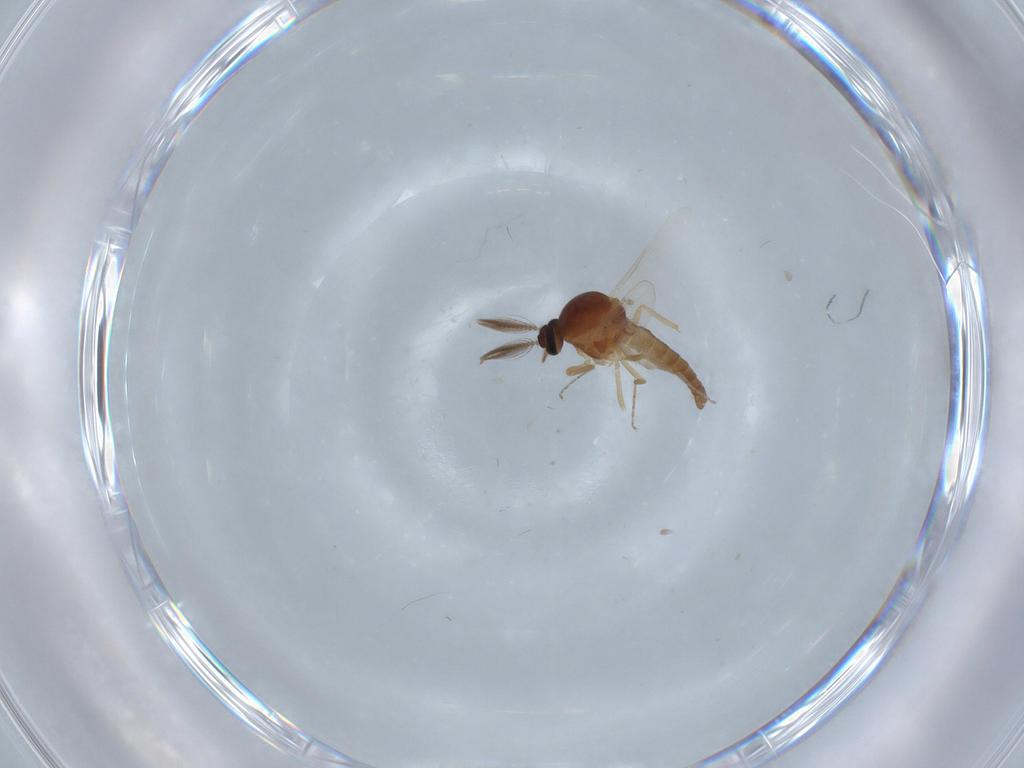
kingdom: Animalia
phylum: Arthropoda
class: Insecta
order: Diptera
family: Ceratopogonidae
